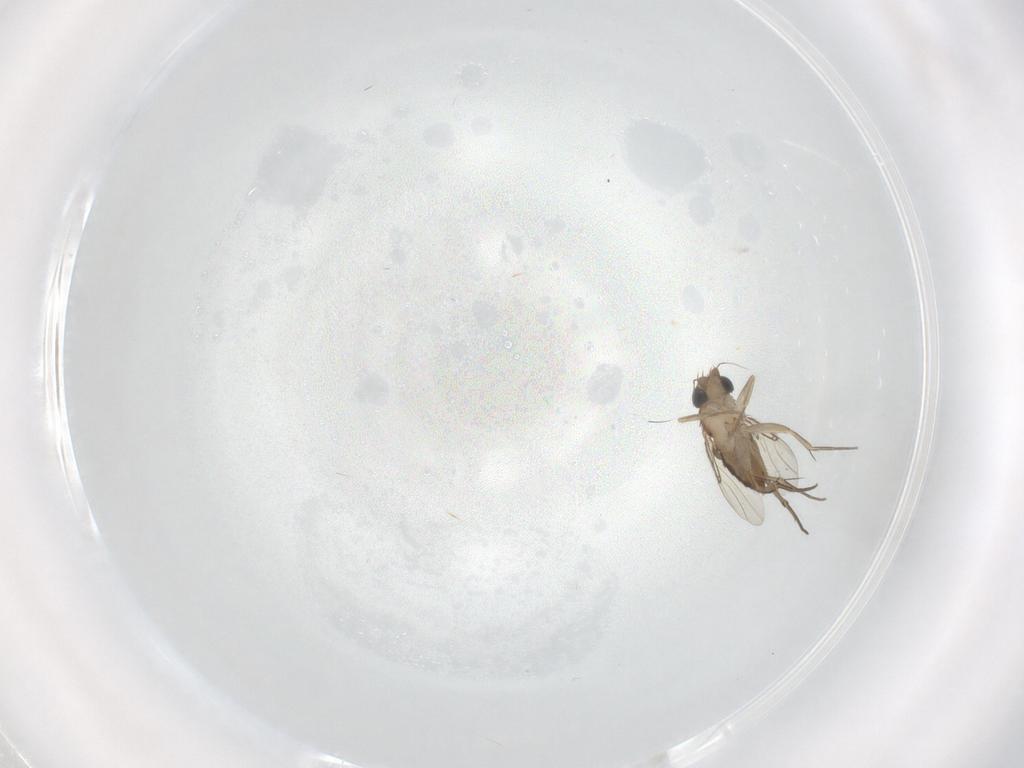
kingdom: Animalia
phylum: Arthropoda
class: Insecta
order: Diptera
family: Phoridae
